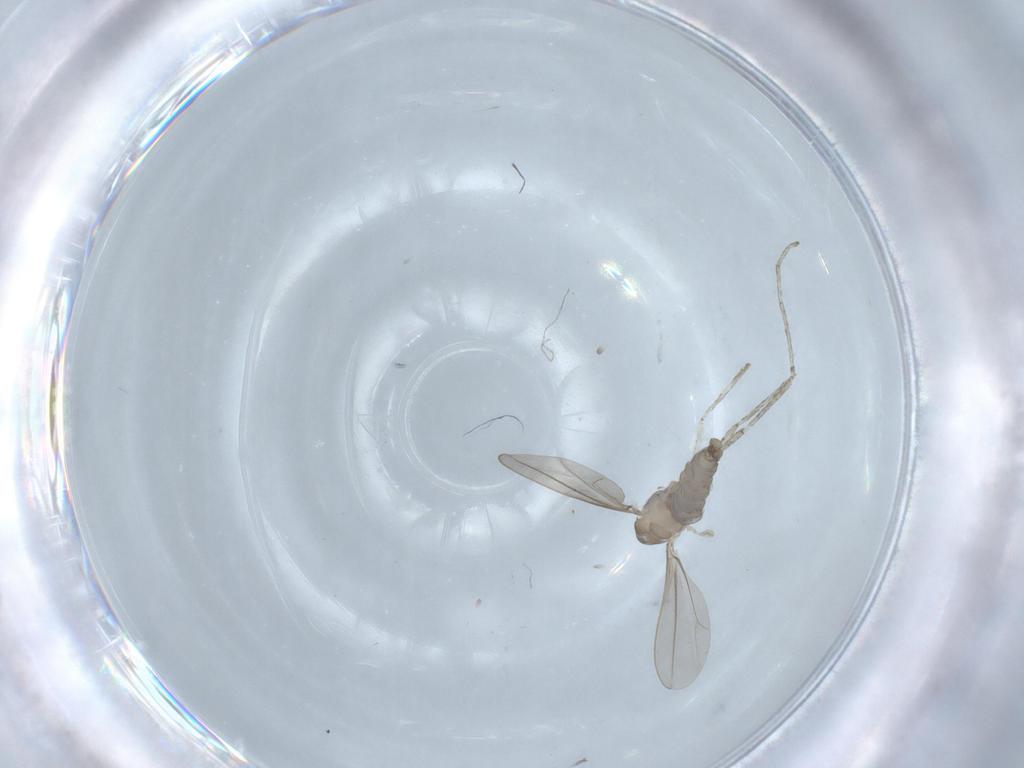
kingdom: Animalia
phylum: Arthropoda
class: Insecta
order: Diptera
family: Cecidomyiidae
